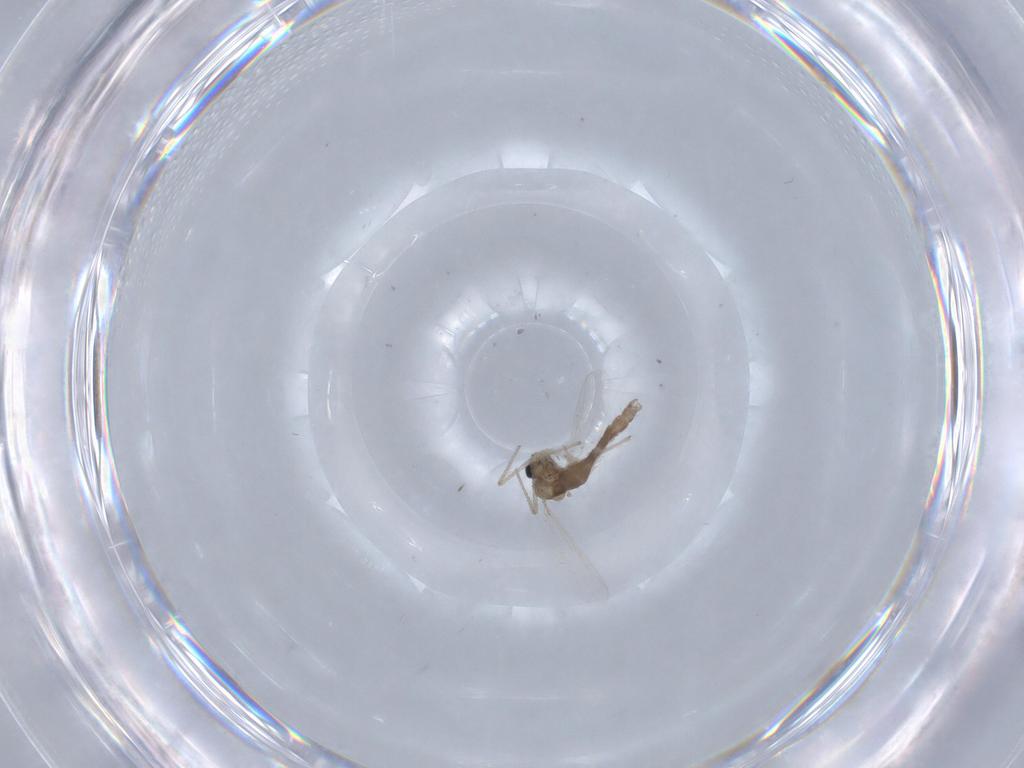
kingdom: Animalia
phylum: Arthropoda
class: Insecta
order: Diptera
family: Chironomidae
